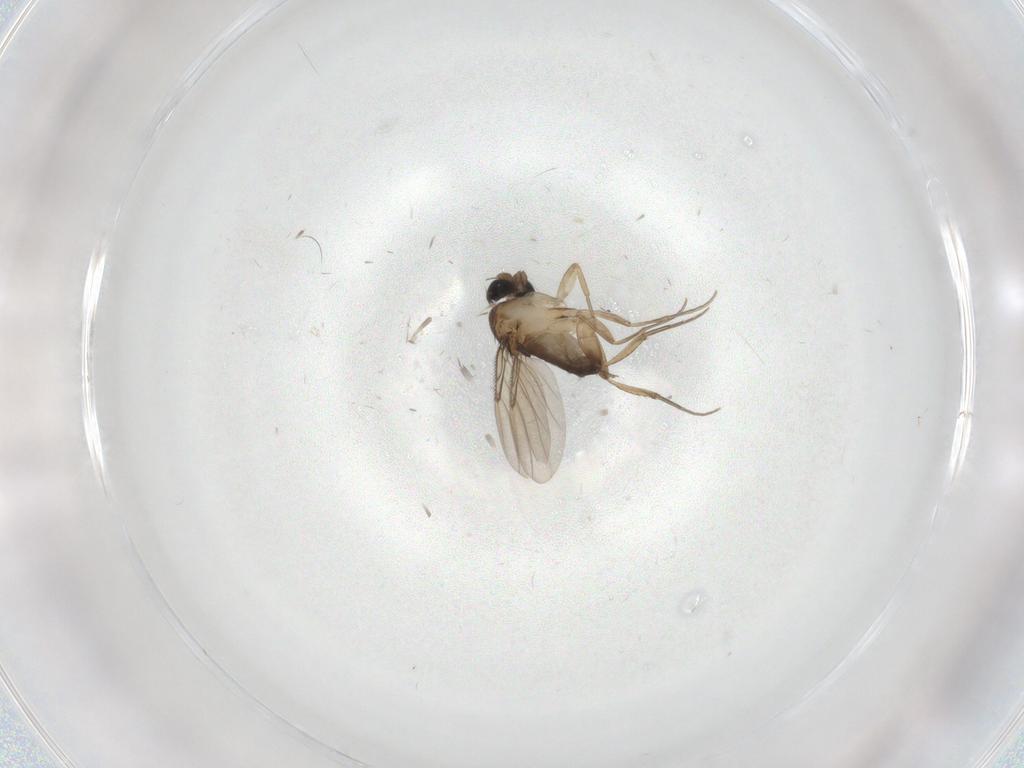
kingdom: Animalia
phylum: Arthropoda
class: Insecta
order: Diptera
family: Phoridae
